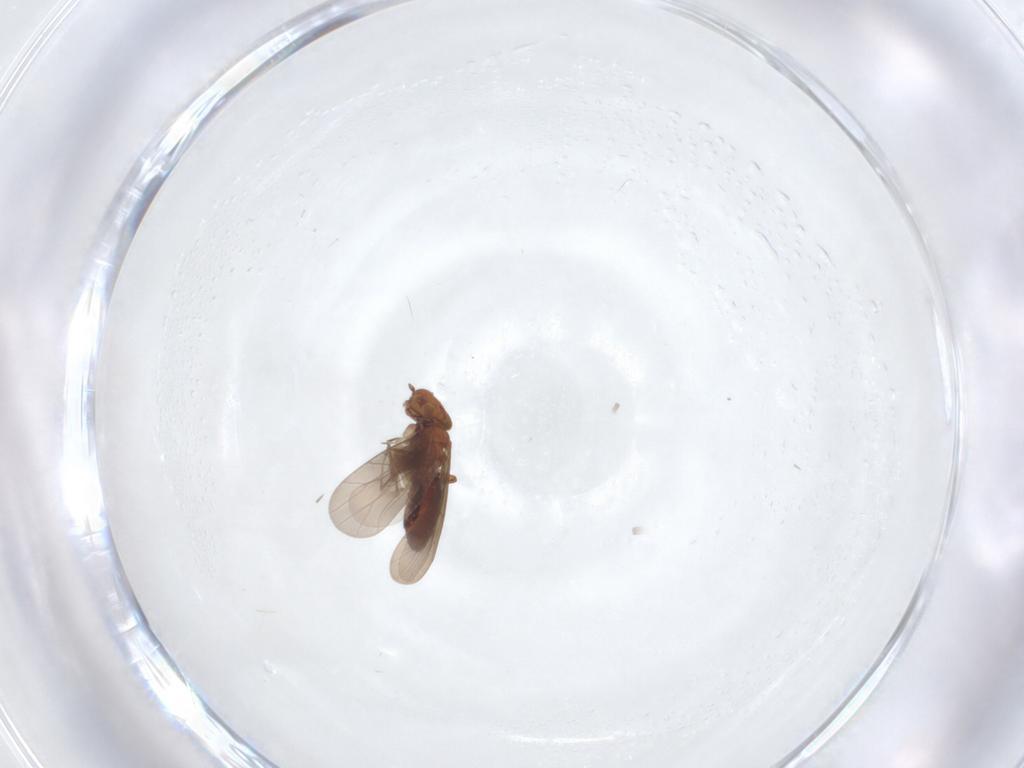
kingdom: Animalia
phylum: Arthropoda
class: Insecta
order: Psocodea
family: Lepidopsocidae
